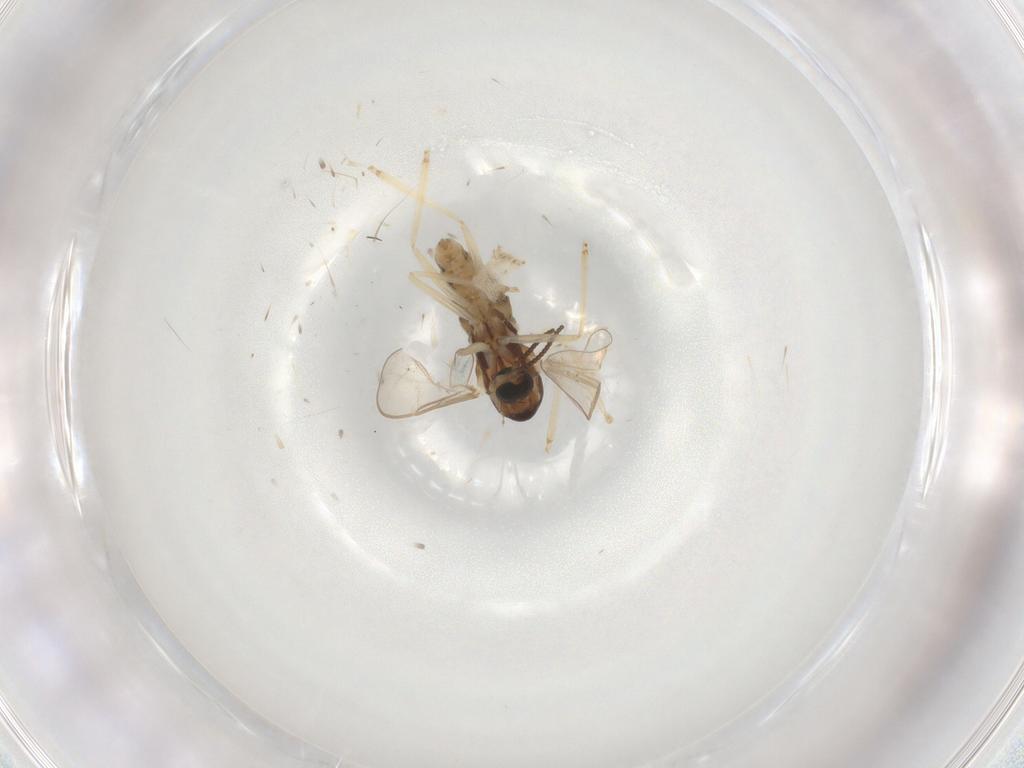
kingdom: Animalia
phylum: Arthropoda
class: Insecta
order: Diptera
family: Cecidomyiidae
